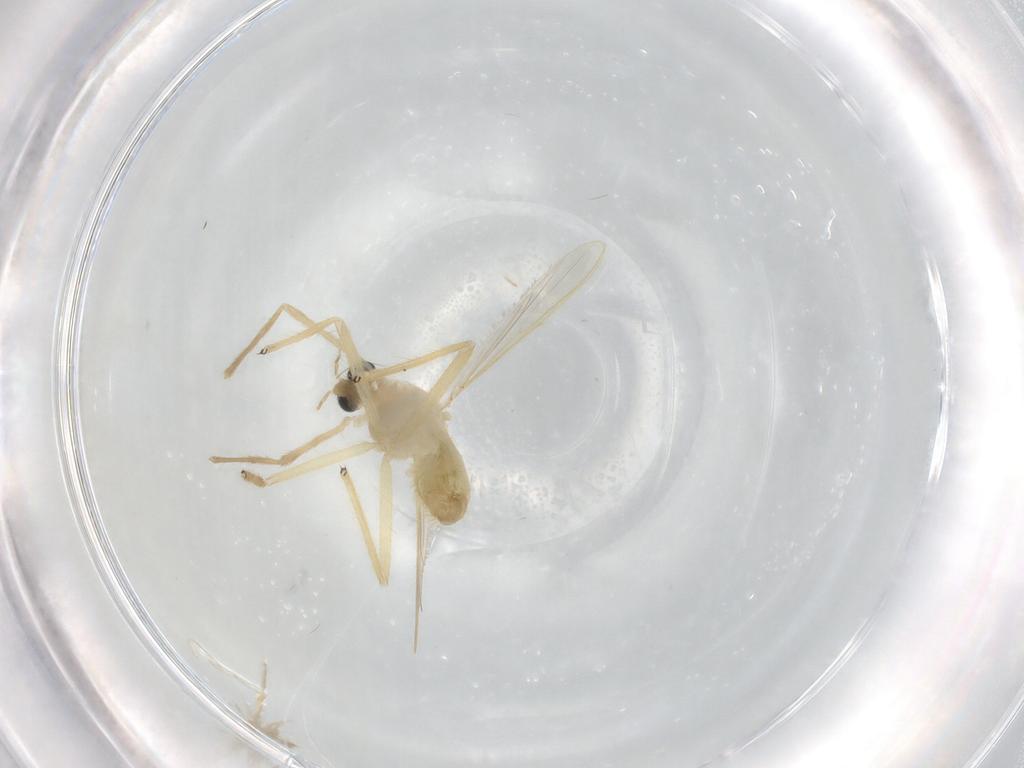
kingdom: Animalia
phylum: Arthropoda
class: Insecta
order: Diptera
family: Chironomidae
